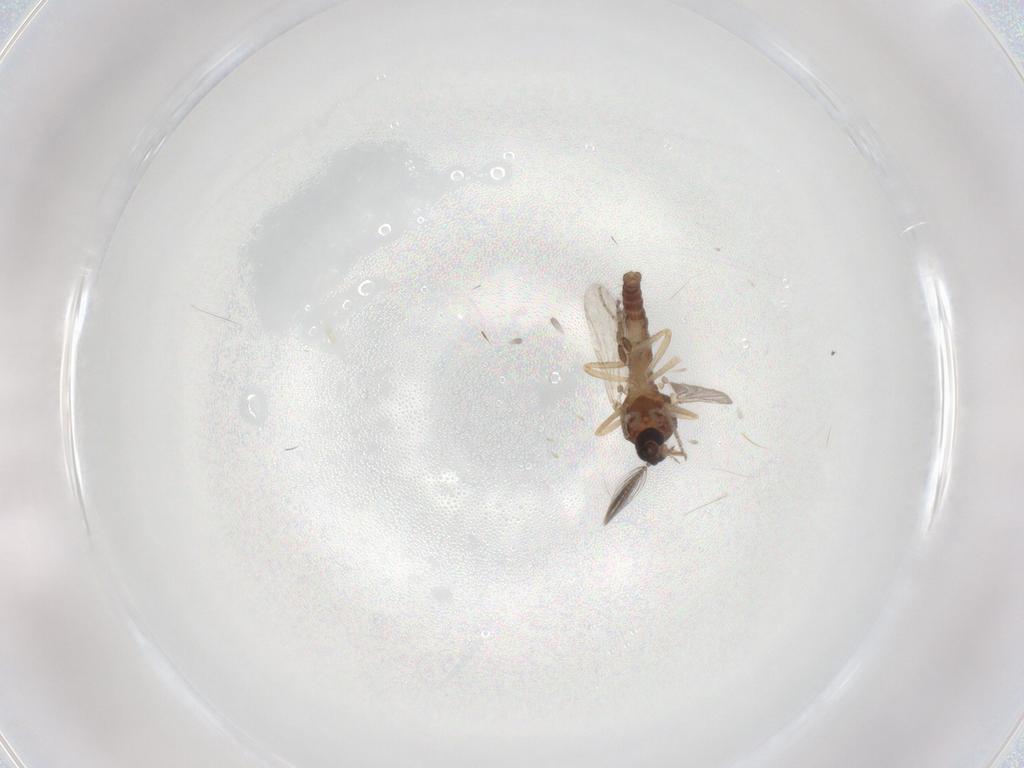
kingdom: Animalia
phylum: Arthropoda
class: Insecta
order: Diptera
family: Ceratopogonidae
